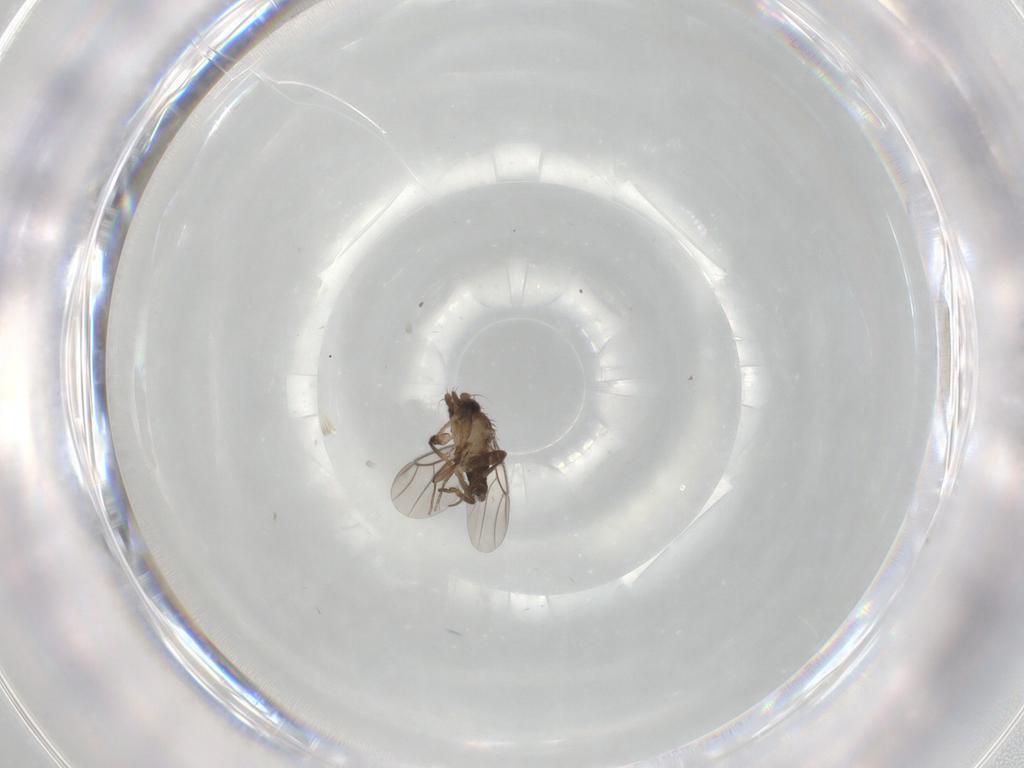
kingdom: Animalia
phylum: Arthropoda
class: Insecta
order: Diptera
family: Phoridae
